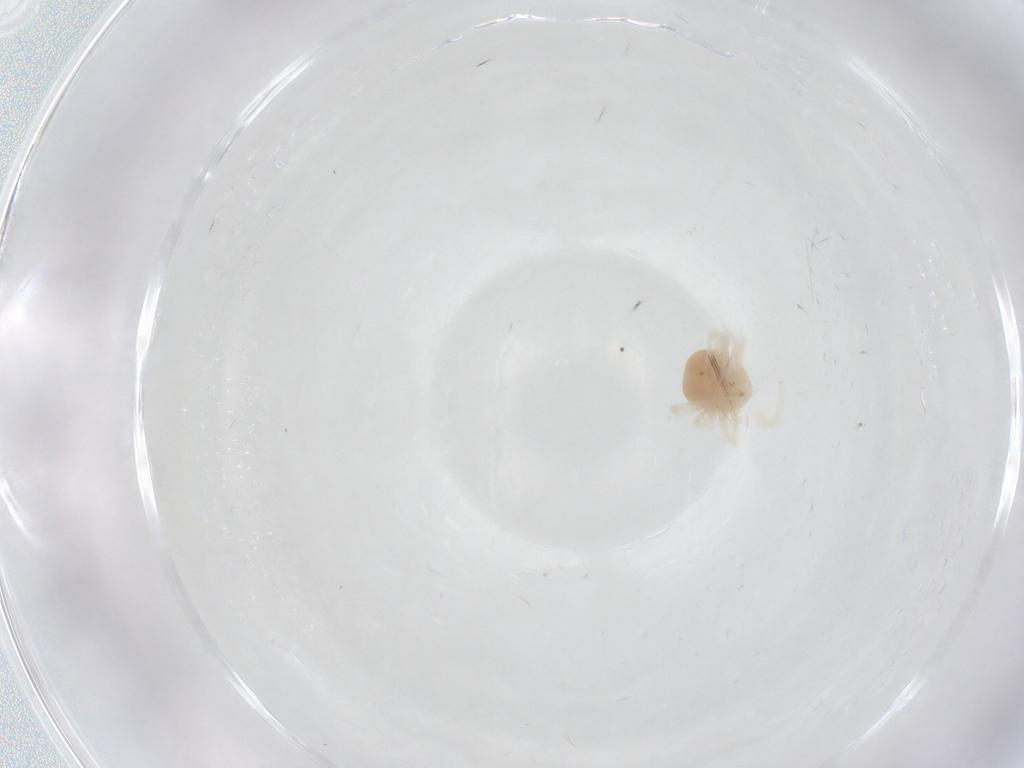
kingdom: Animalia
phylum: Arthropoda
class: Arachnida
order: Trombidiformes
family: Anystidae
